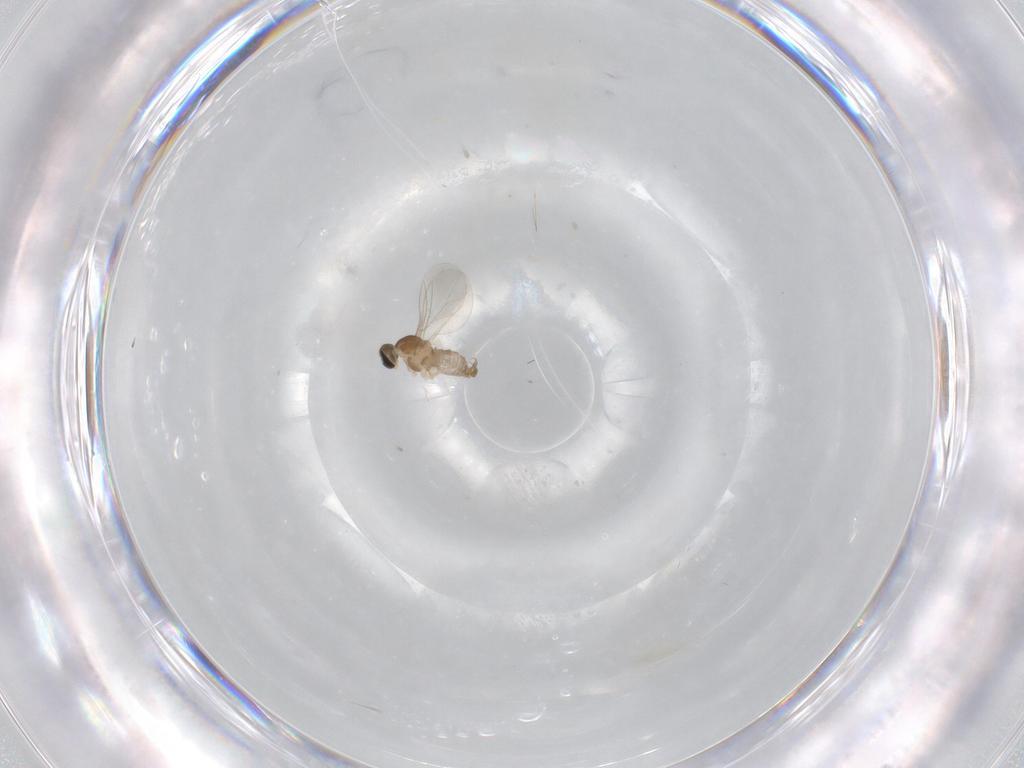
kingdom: Animalia
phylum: Arthropoda
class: Insecta
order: Diptera
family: Cecidomyiidae
